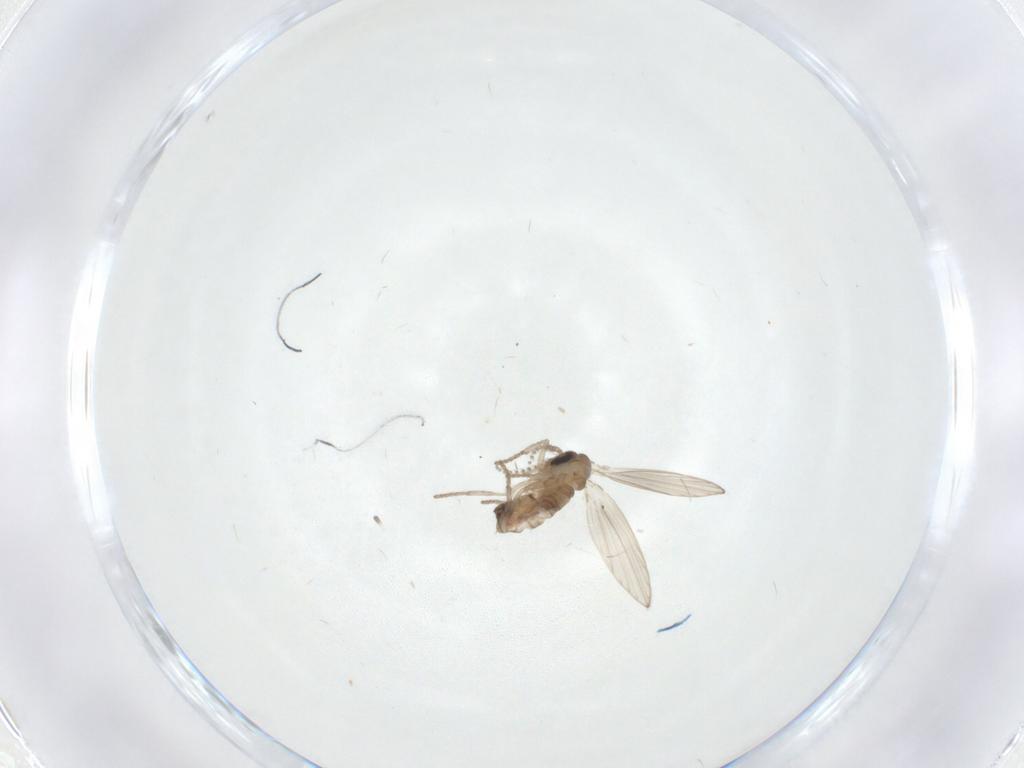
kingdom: Animalia
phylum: Arthropoda
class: Insecta
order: Diptera
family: Psychodidae
